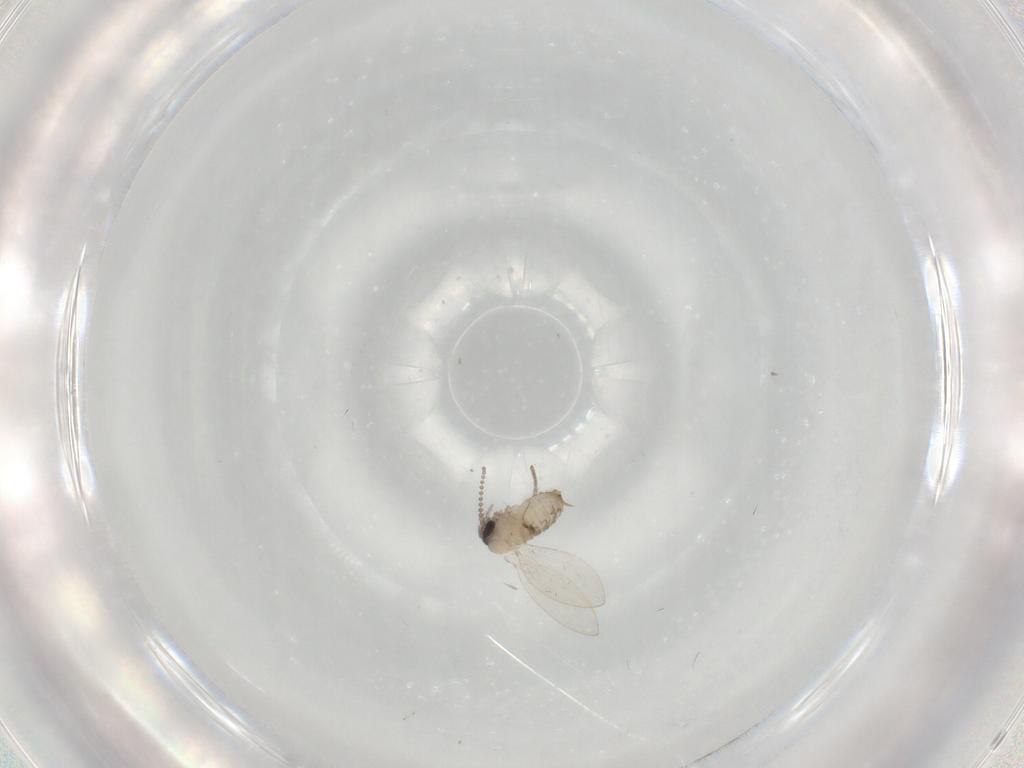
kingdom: Animalia
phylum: Arthropoda
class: Insecta
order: Diptera
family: Psychodidae
